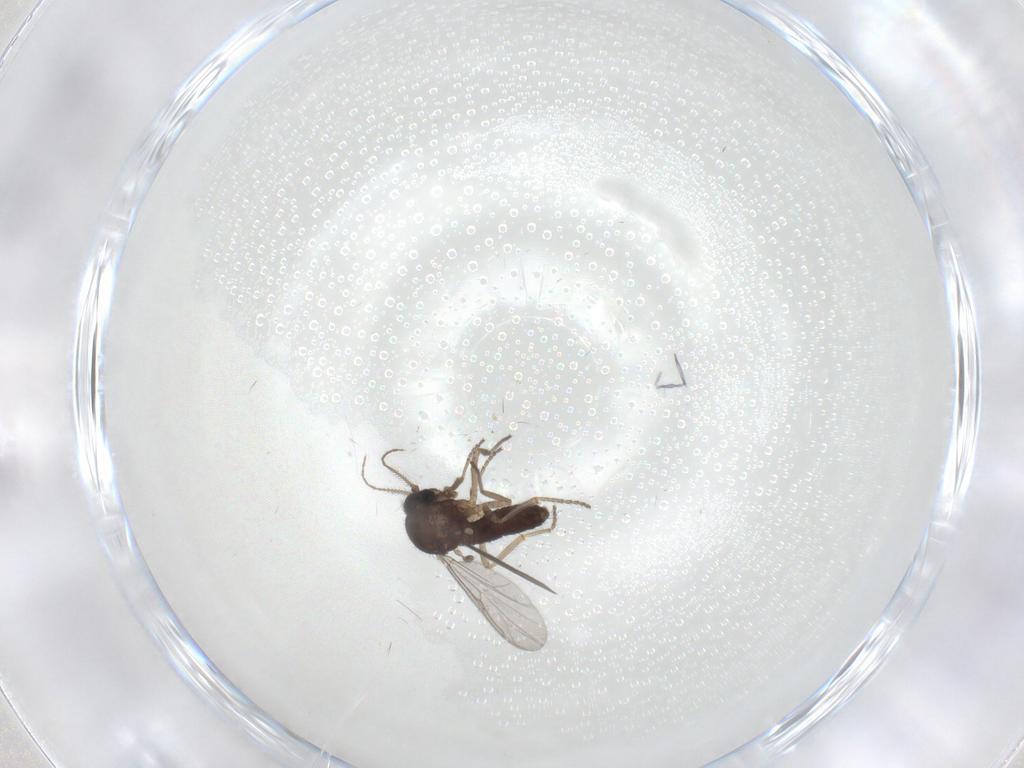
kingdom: Animalia
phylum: Arthropoda
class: Insecta
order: Diptera
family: Ceratopogonidae
